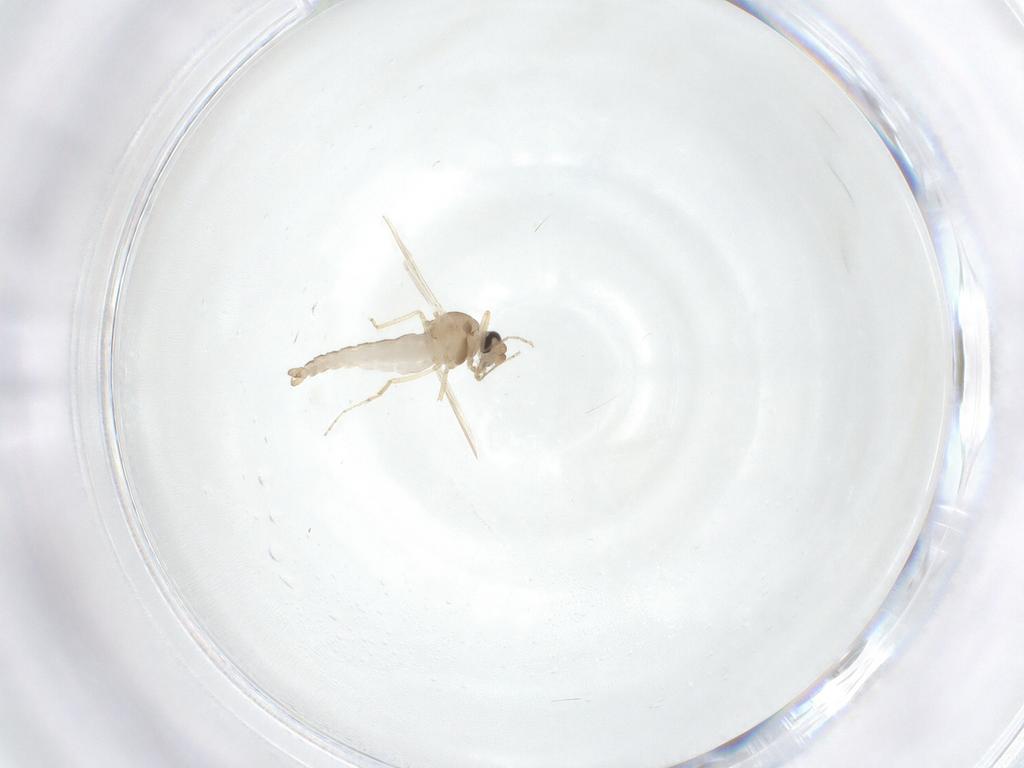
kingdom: Animalia
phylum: Arthropoda
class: Insecta
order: Diptera
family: Ceratopogonidae
